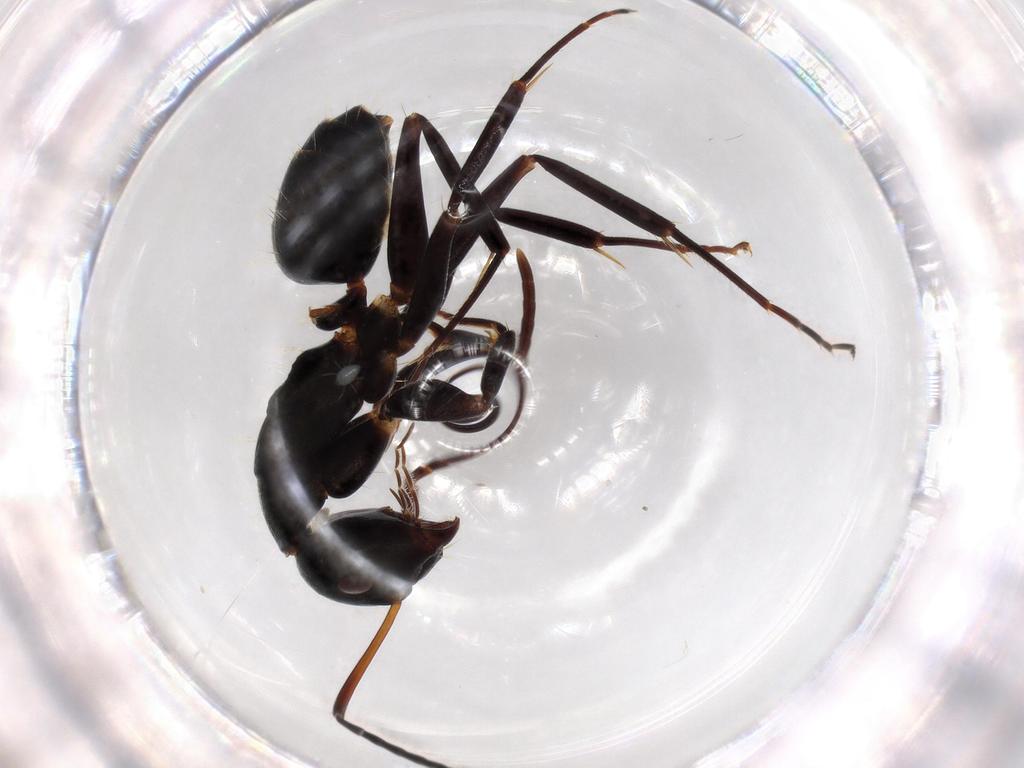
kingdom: Animalia
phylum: Arthropoda
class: Insecta
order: Hymenoptera
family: Formicidae
